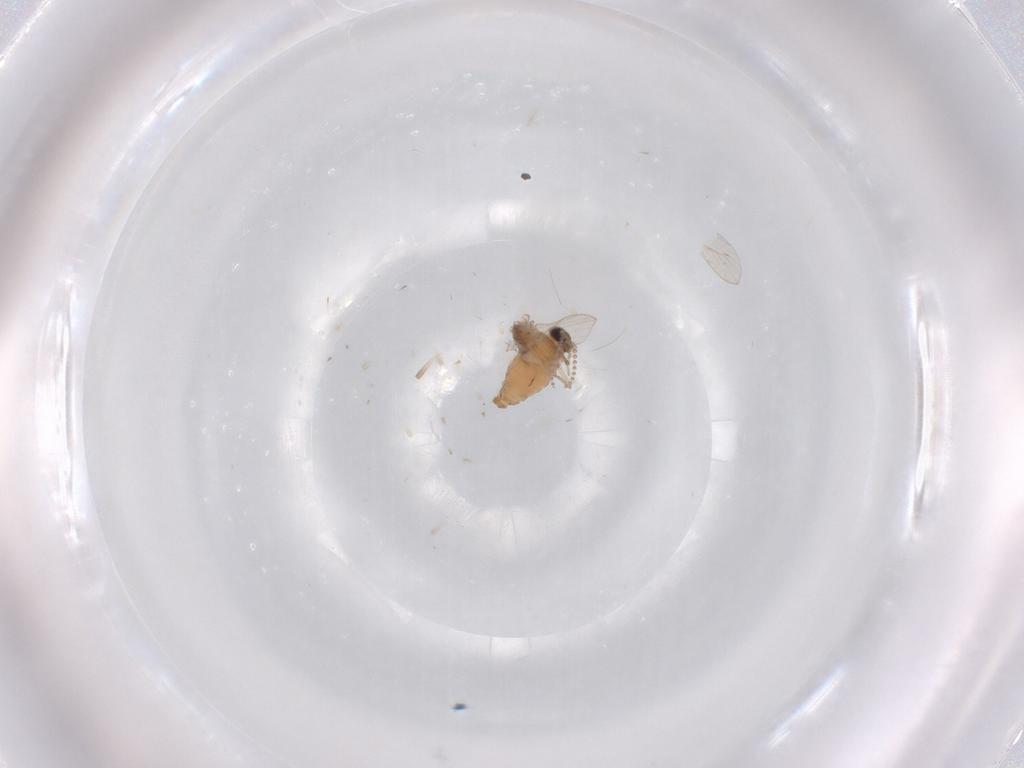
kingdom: Animalia
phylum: Arthropoda
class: Insecta
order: Diptera
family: Psychodidae
